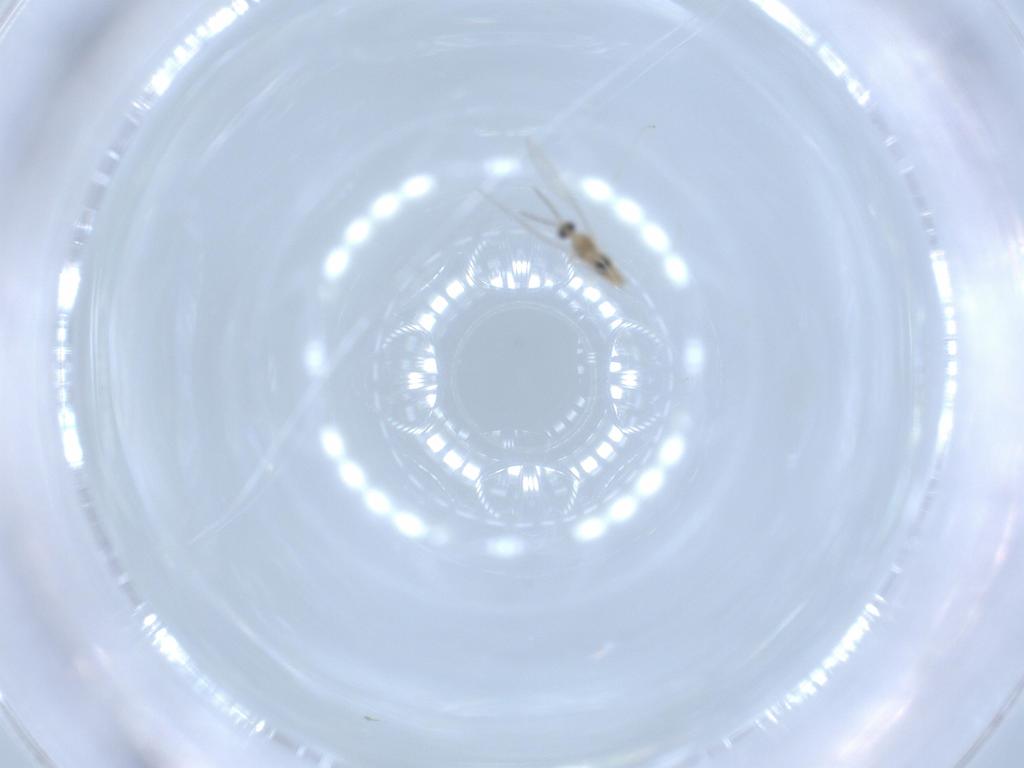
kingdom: Animalia
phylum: Arthropoda
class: Insecta
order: Diptera
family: Cecidomyiidae
